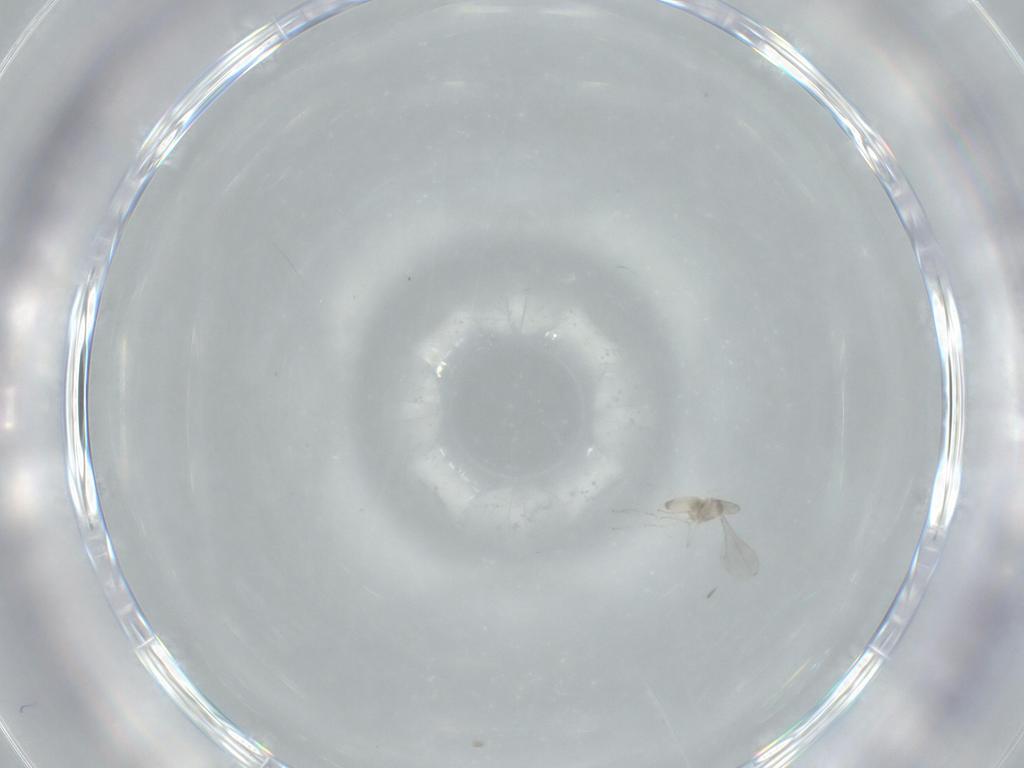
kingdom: Animalia
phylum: Arthropoda
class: Insecta
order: Diptera
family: Cecidomyiidae
